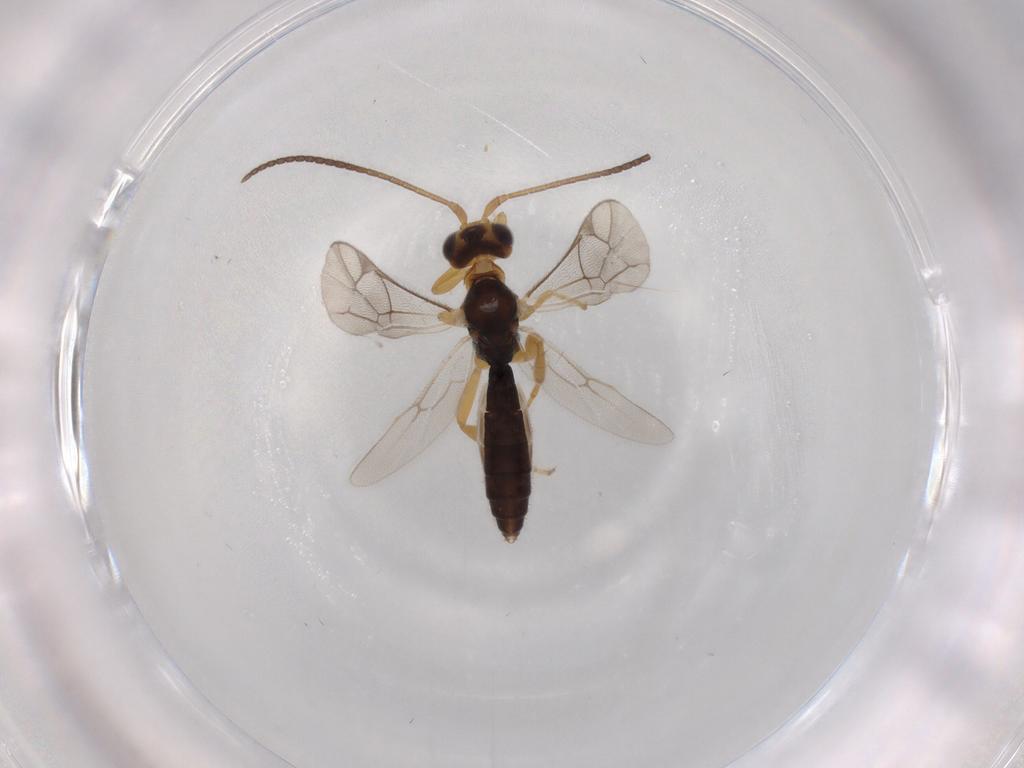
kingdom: Animalia
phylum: Arthropoda
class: Insecta
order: Hymenoptera
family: Ichneumonidae
